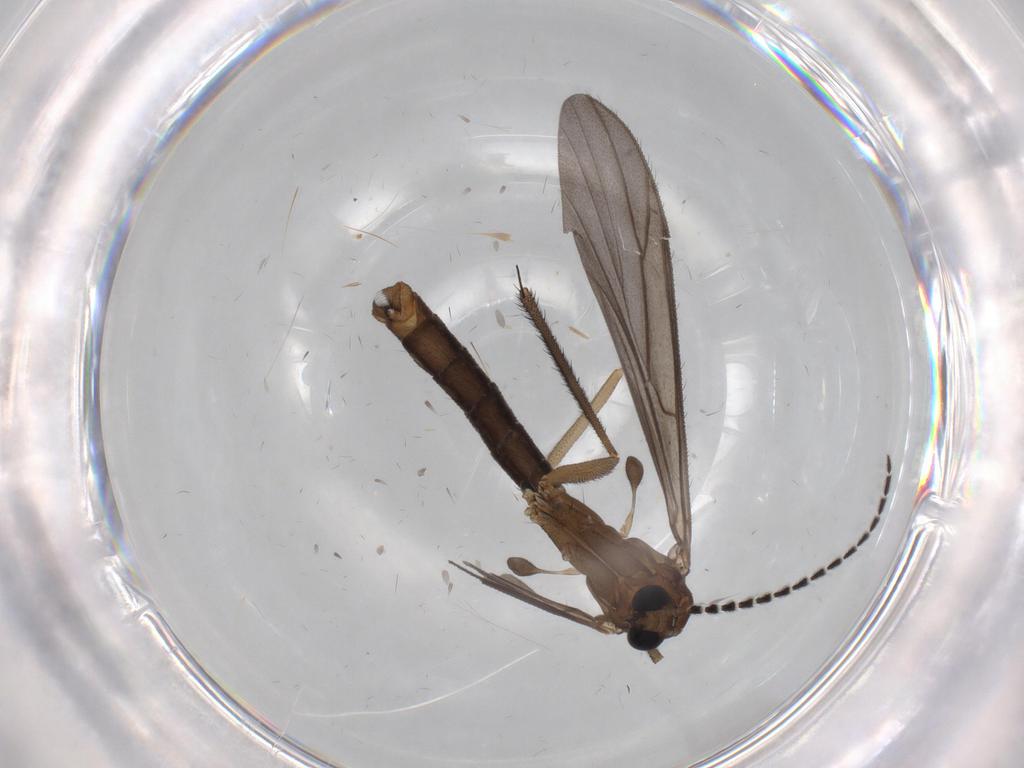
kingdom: Animalia
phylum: Arthropoda
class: Insecta
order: Diptera
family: Ditomyiidae
